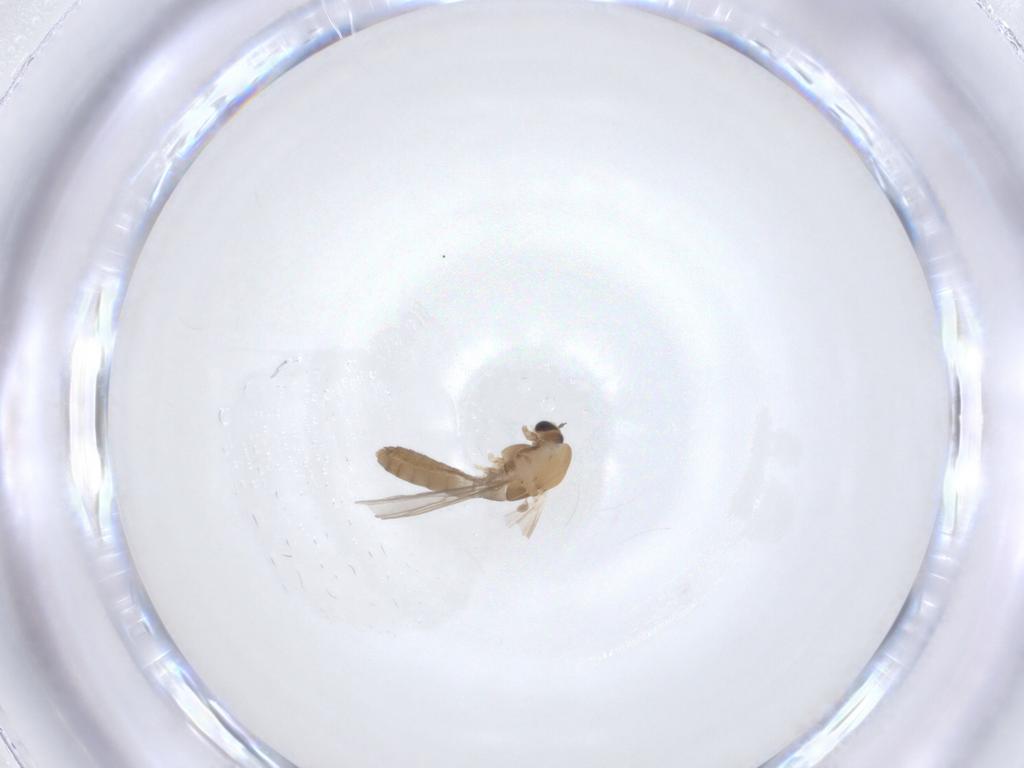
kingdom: Animalia
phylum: Arthropoda
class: Insecta
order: Diptera
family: Chironomidae
